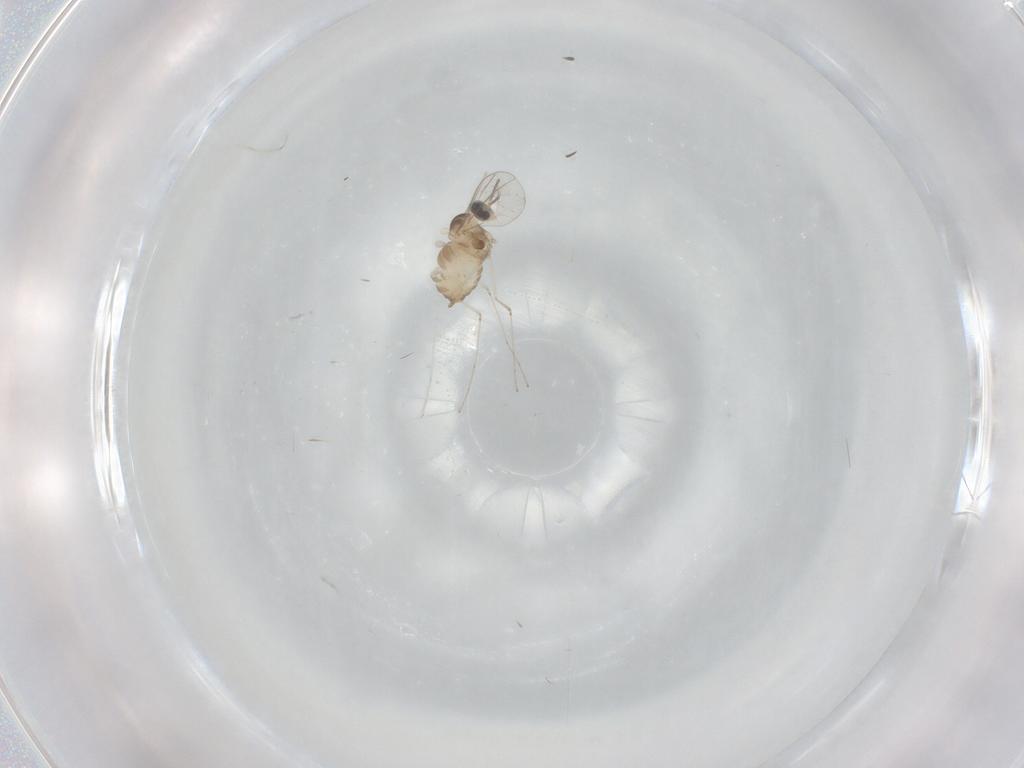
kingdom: Animalia
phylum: Arthropoda
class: Insecta
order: Diptera
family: Cecidomyiidae
